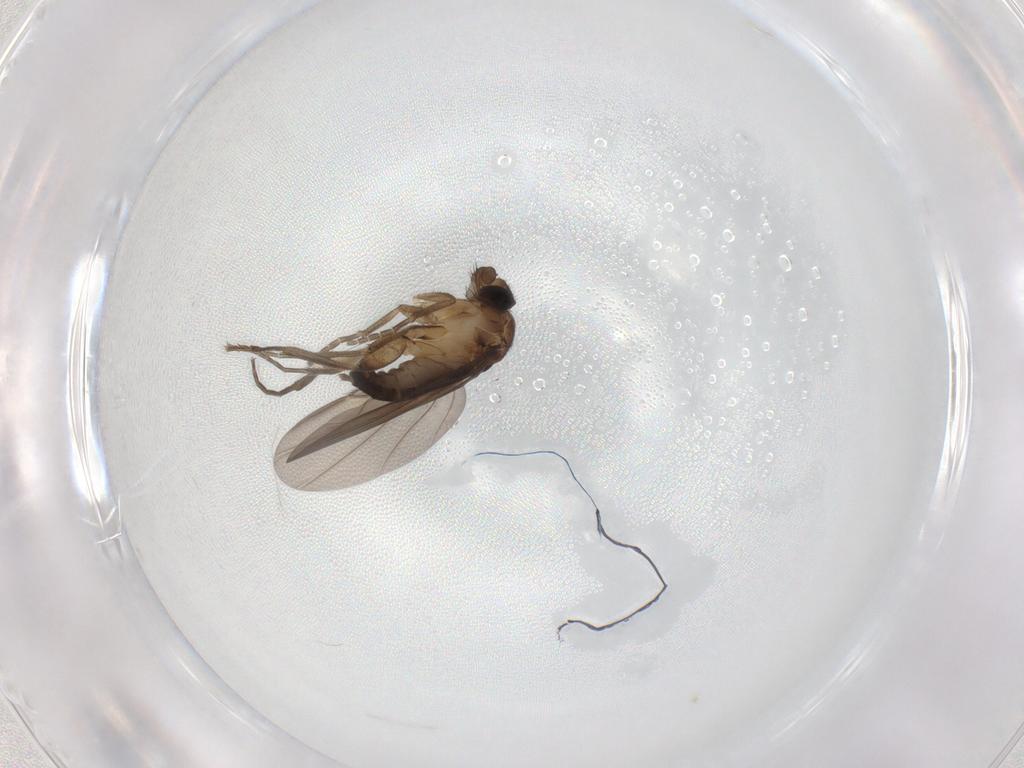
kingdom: Animalia
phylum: Arthropoda
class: Insecta
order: Diptera
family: Phoridae
